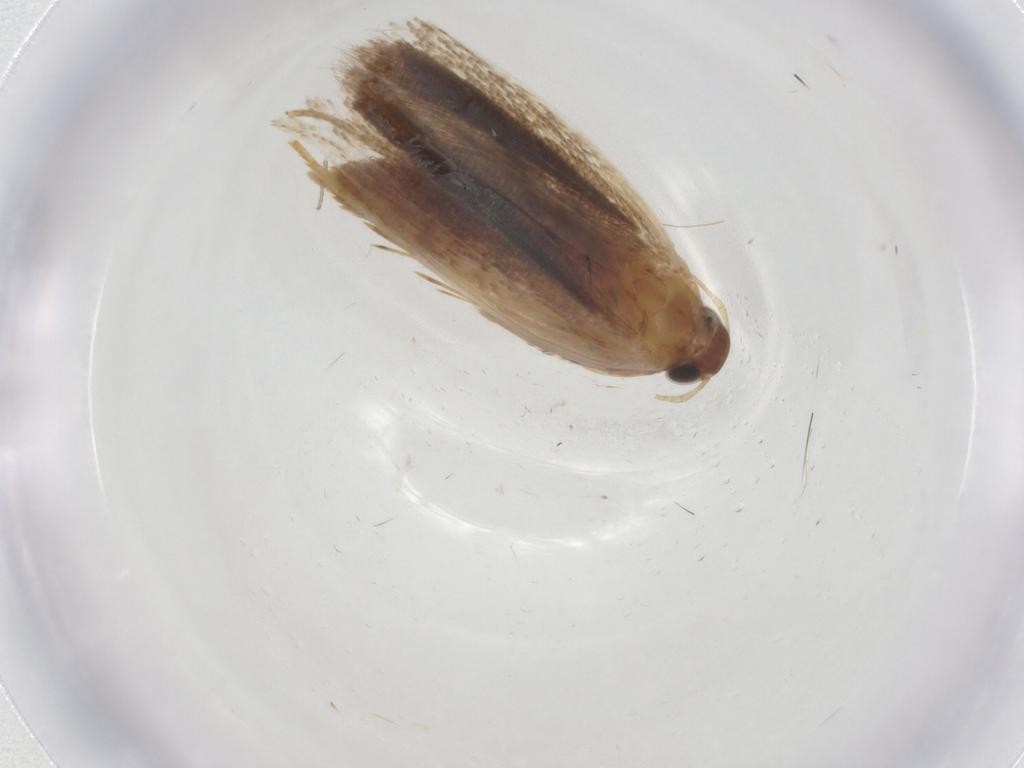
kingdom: Animalia
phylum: Arthropoda
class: Insecta
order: Lepidoptera
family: Gelechiidae
